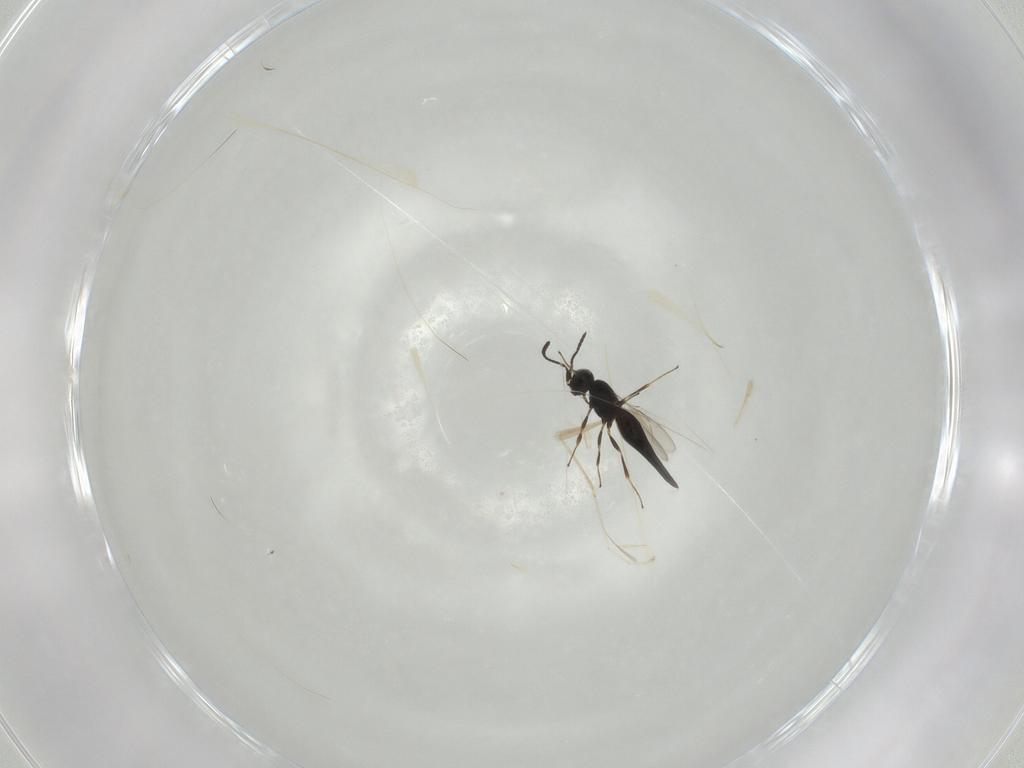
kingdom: Animalia
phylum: Arthropoda
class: Insecta
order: Hymenoptera
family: Scelionidae
